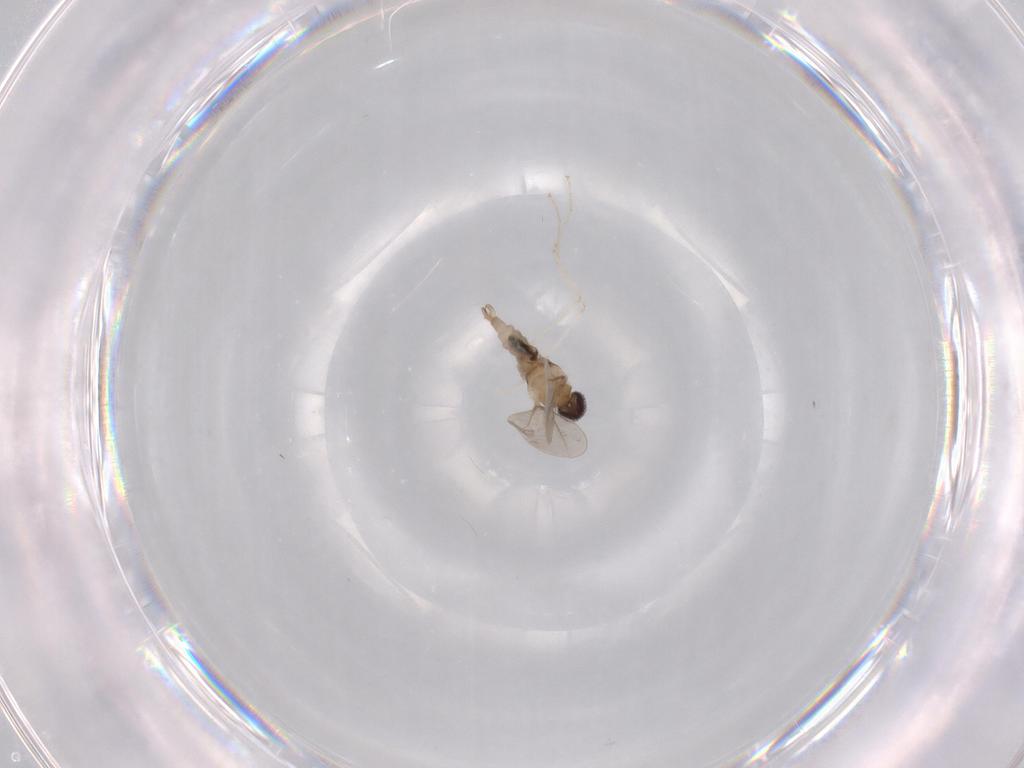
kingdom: Animalia
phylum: Arthropoda
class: Insecta
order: Diptera
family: Cecidomyiidae
